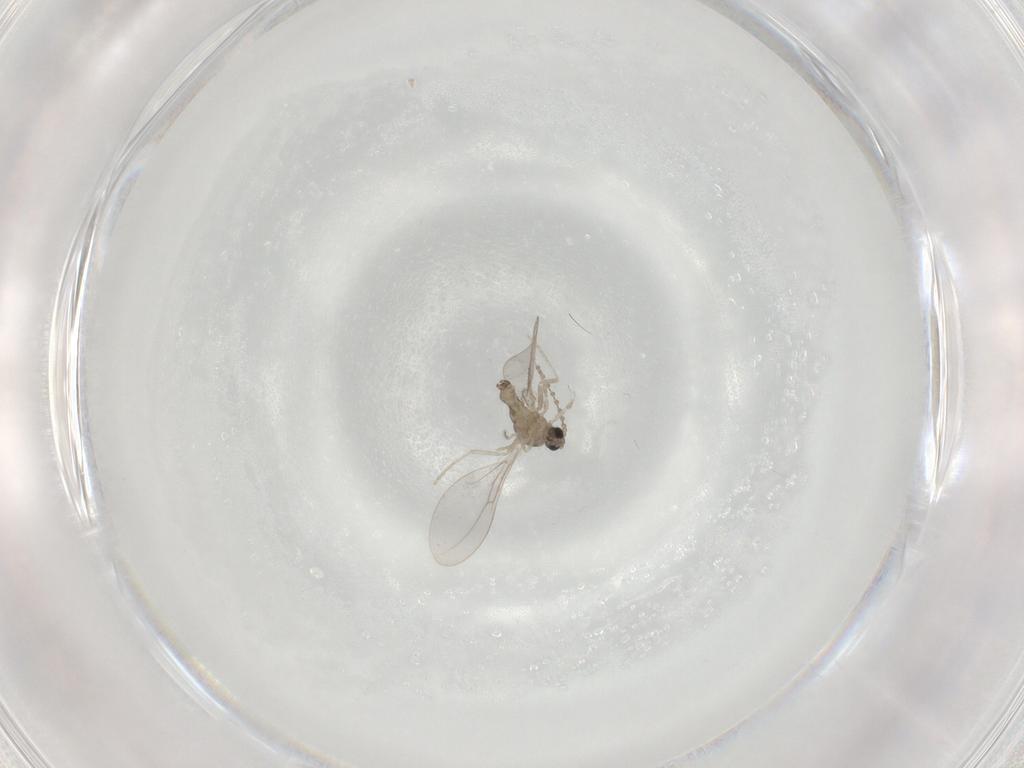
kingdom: Animalia
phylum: Arthropoda
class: Insecta
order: Diptera
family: Cecidomyiidae
